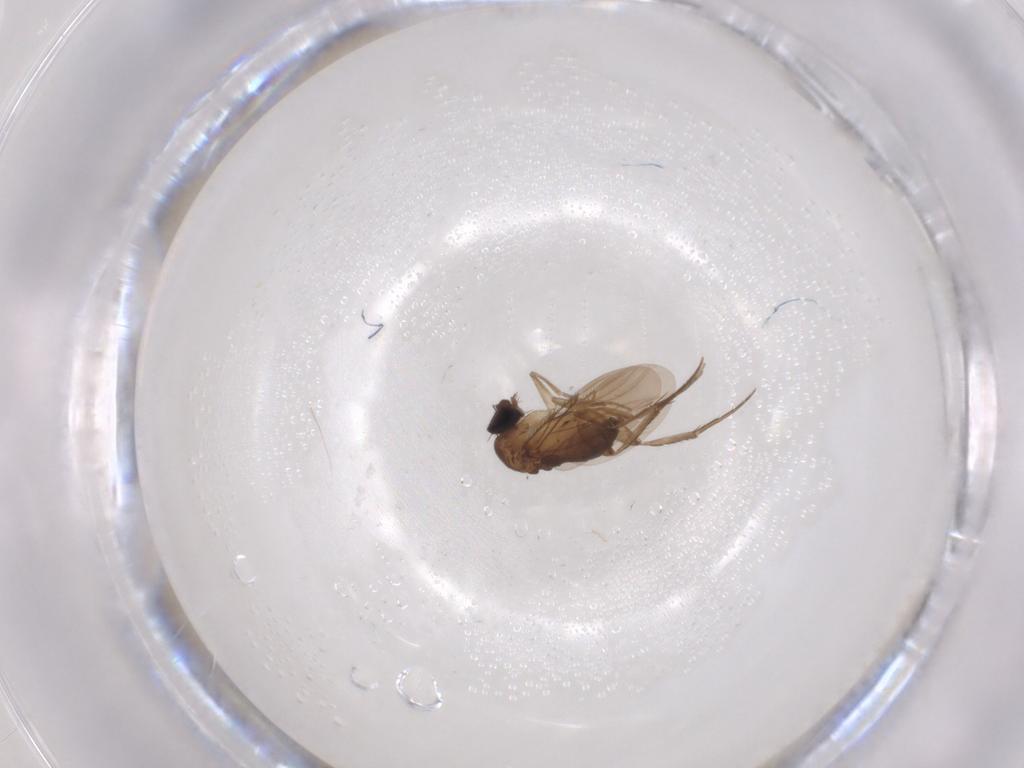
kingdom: Animalia
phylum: Arthropoda
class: Insecta
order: Diptera
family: Phoridae
